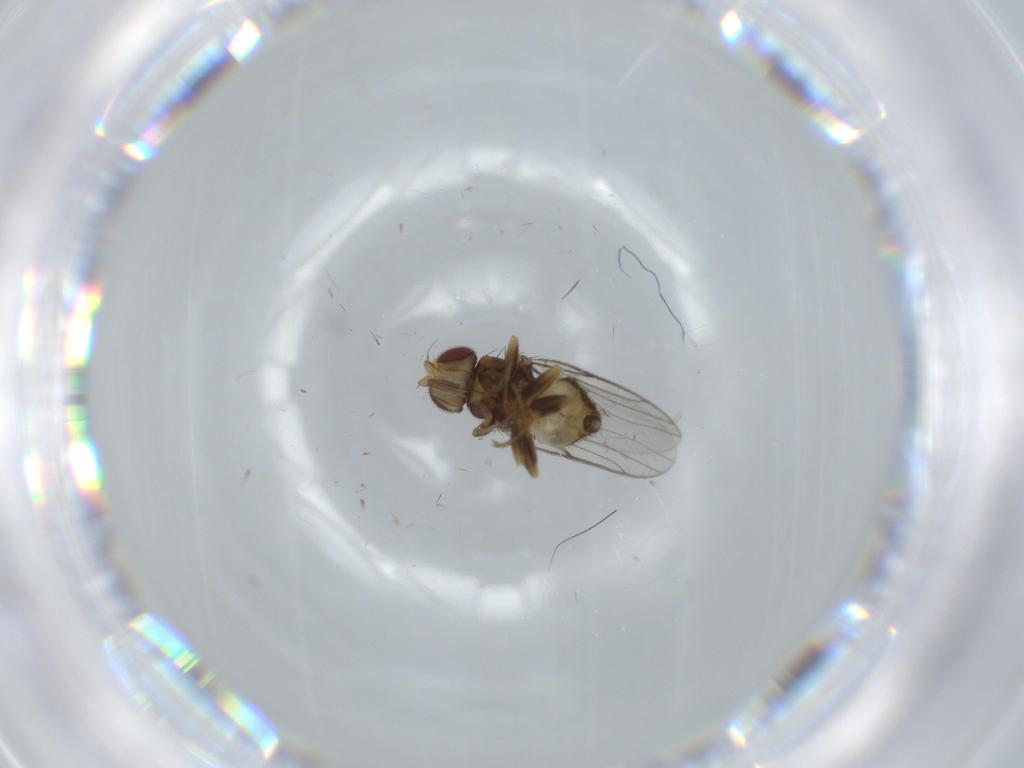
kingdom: Animalia
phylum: Arthropoda
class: Insecta
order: Diptera
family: Chloropidae
